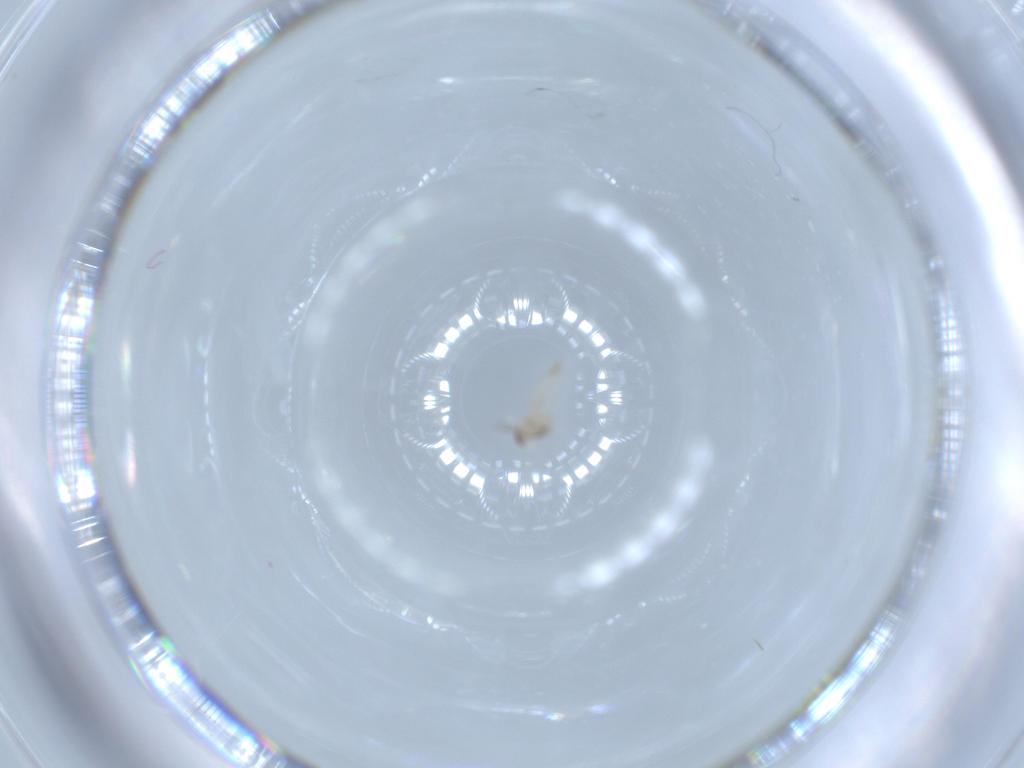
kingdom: Animalia
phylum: Arthropoda
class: Insecta
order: Diptera
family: Cecidomyiidae
